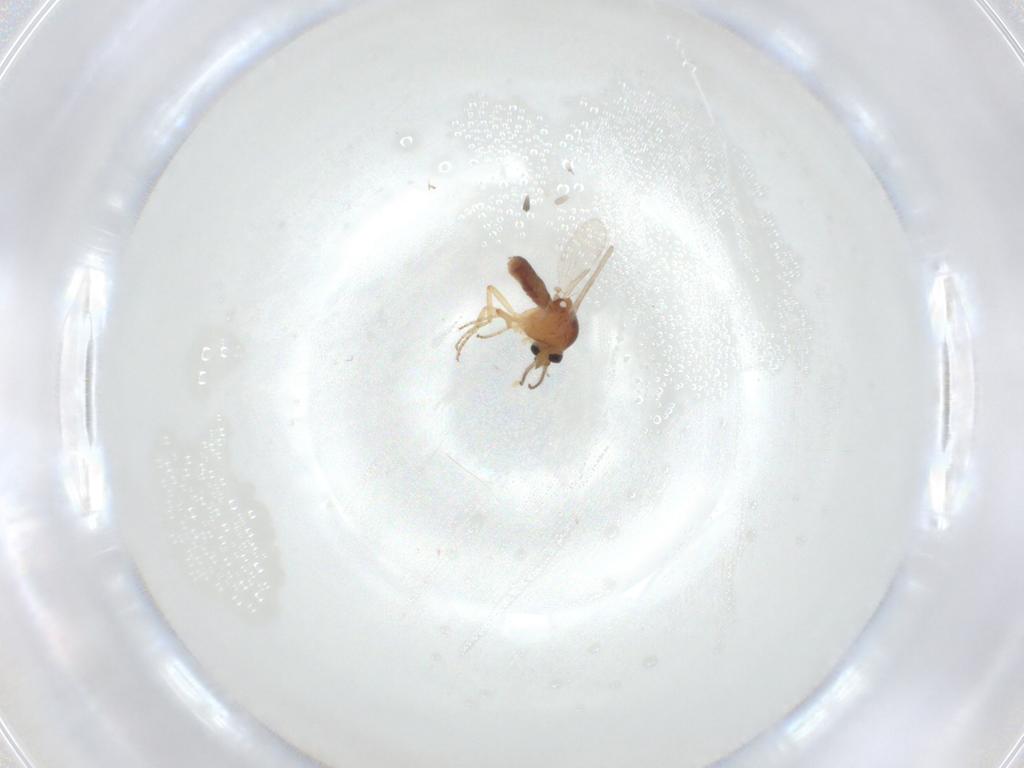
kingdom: Animalia
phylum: Arthropoda
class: Insecta
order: Diptera
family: Ceratopogonidae
